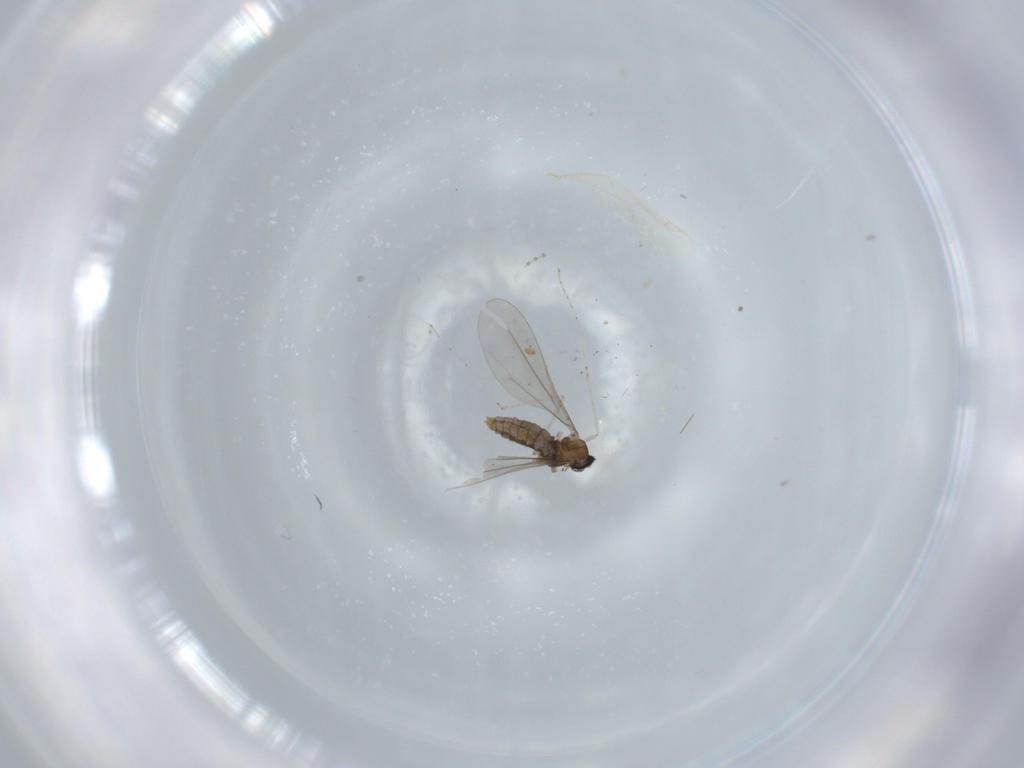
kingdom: Animalia
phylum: Arthropoda
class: Insecta
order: Diptera
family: Cecidomyiidae
